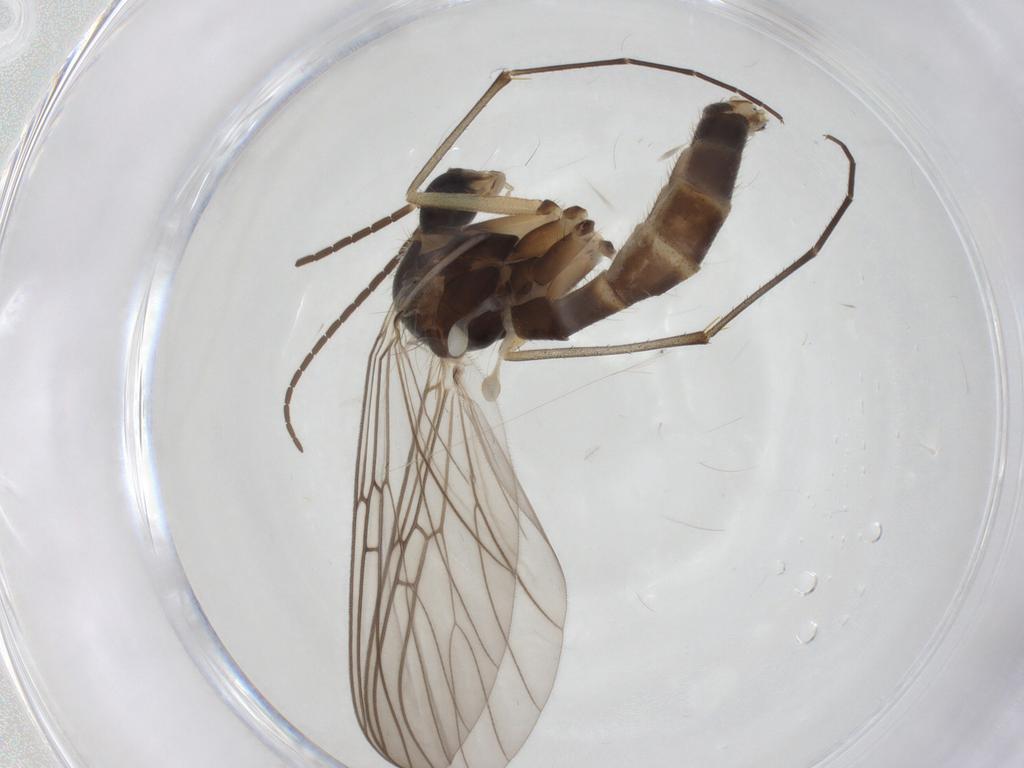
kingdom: Animalia
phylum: Arthropoda
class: Insecta
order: Diptera
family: Mycetophilidae
